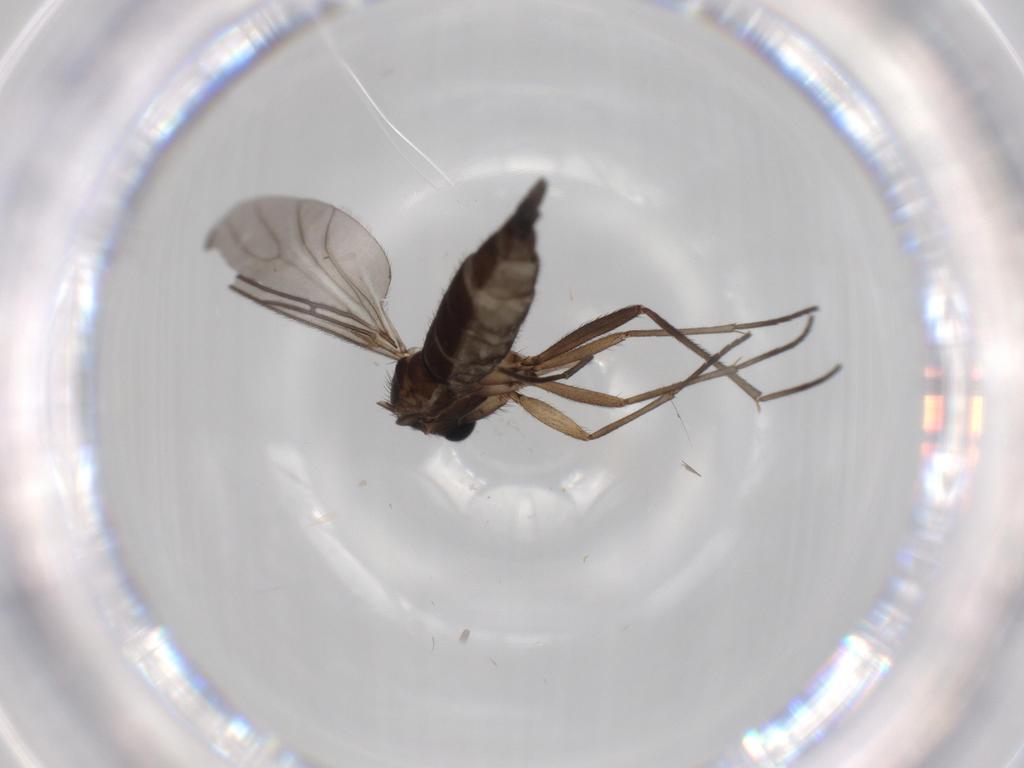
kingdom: Animalia
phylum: Arthropoda
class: Insecta
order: Diptera
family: Sciaridae
